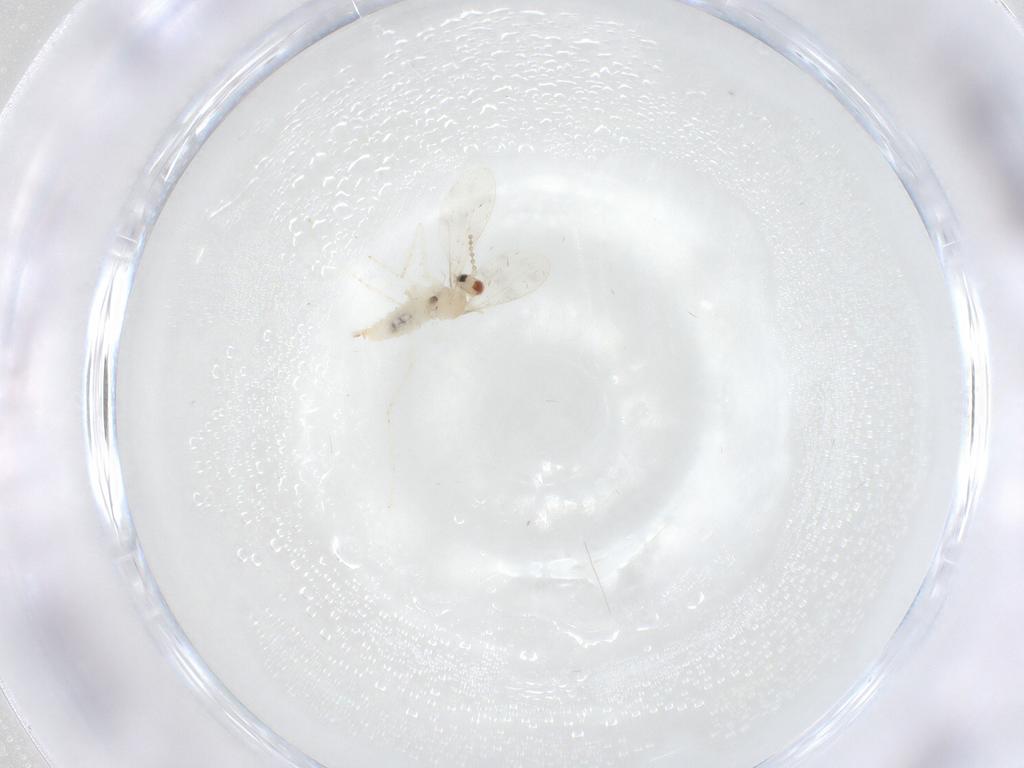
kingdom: Animalia
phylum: Arthropoda
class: Insecta
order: Diptera
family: Cecidomyiidae
